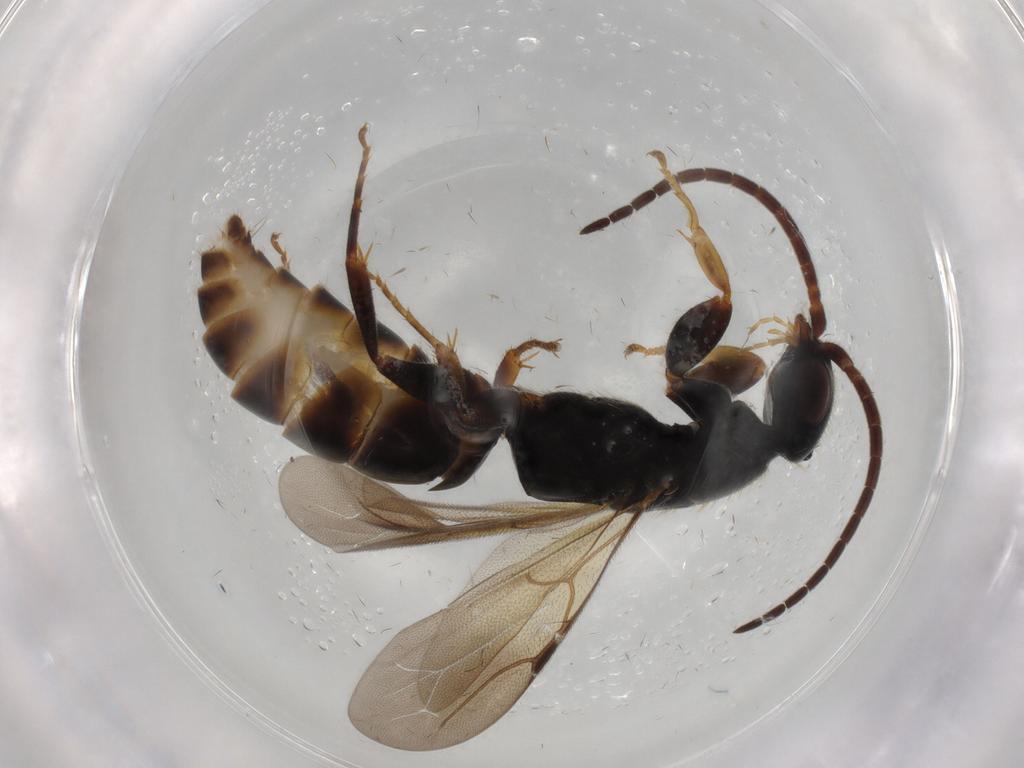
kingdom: Animalia
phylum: Arthropoda
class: Insecta
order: Hymenoptera
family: Bethylidae
